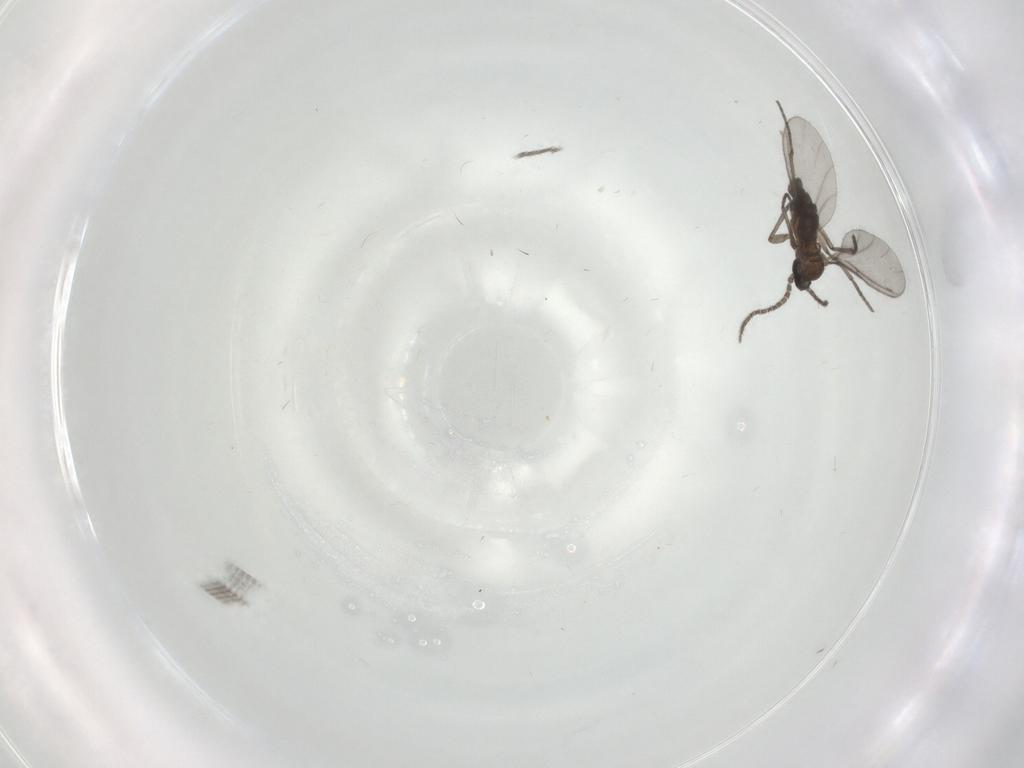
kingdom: Animalia
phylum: Arthropoda
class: Insecta
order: Diptera
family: Sciaridae
